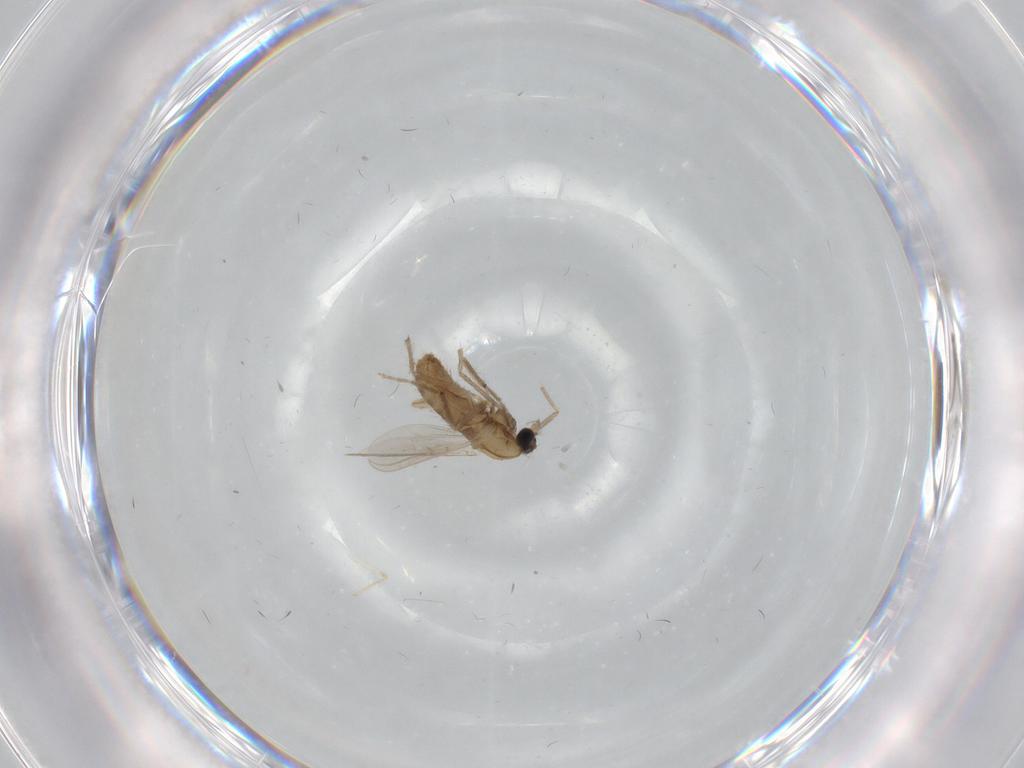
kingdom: Animalia
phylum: Arthropoda
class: Insecta
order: Diptera
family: Chironomidae
